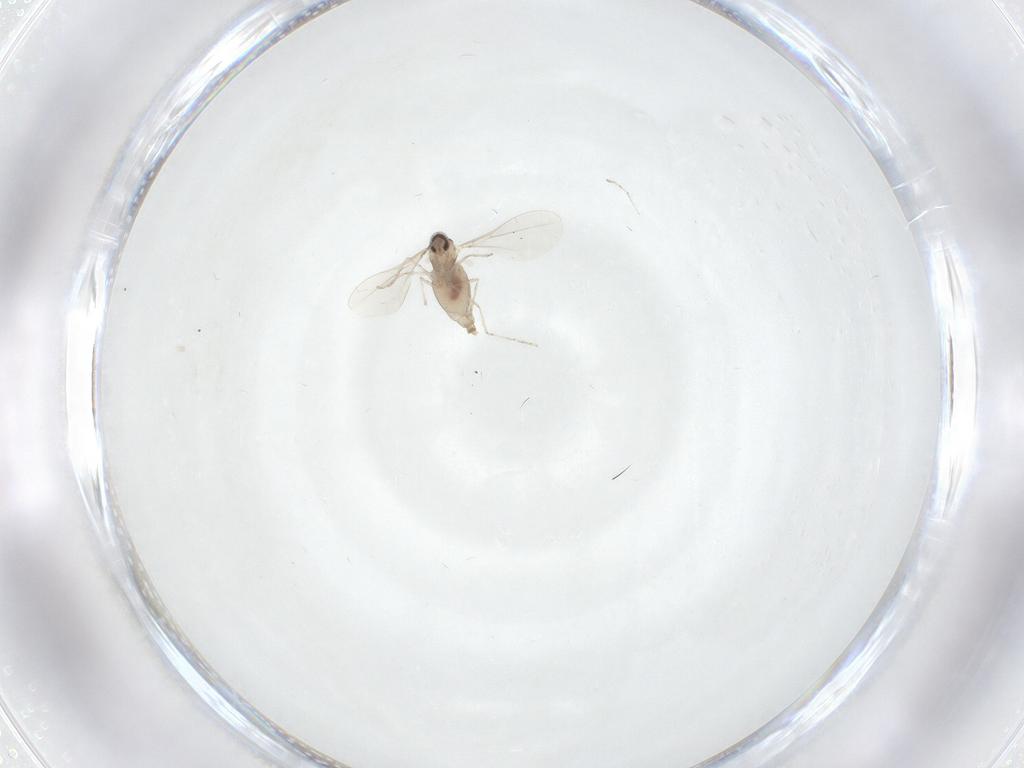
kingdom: Animalia
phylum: Arthropoda
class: Insecta
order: Diptera
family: Cecidomyiidae
